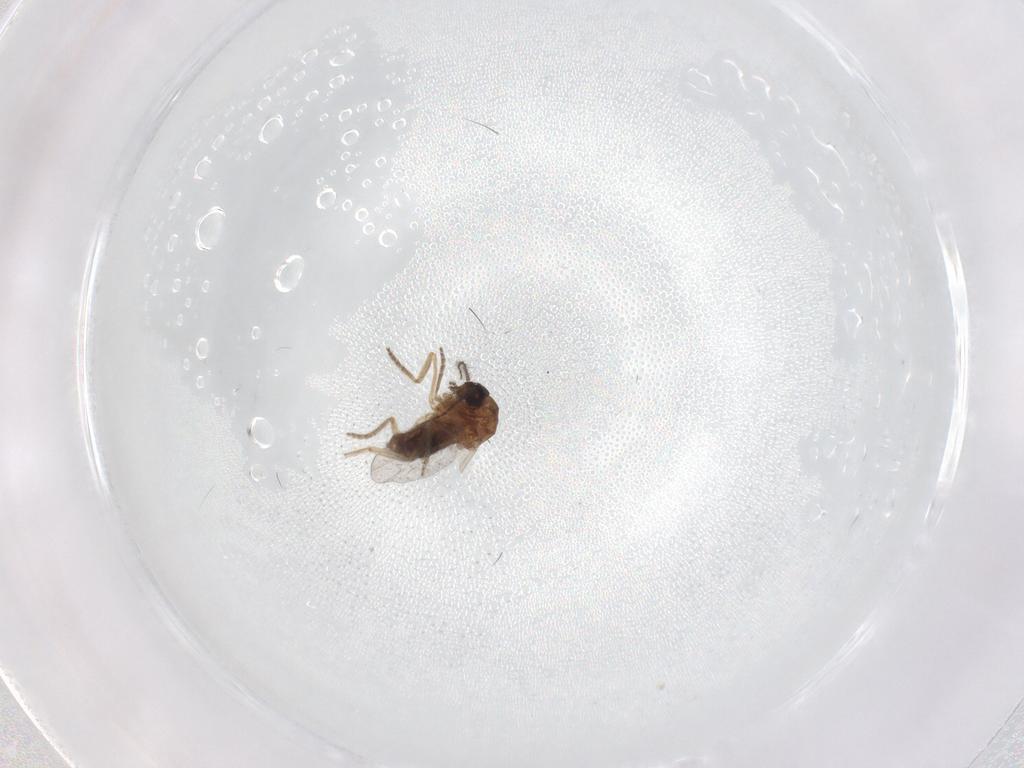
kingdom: Animalia
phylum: Arthropoda
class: Insecta
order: Diptera
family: Ceratopogonidae
